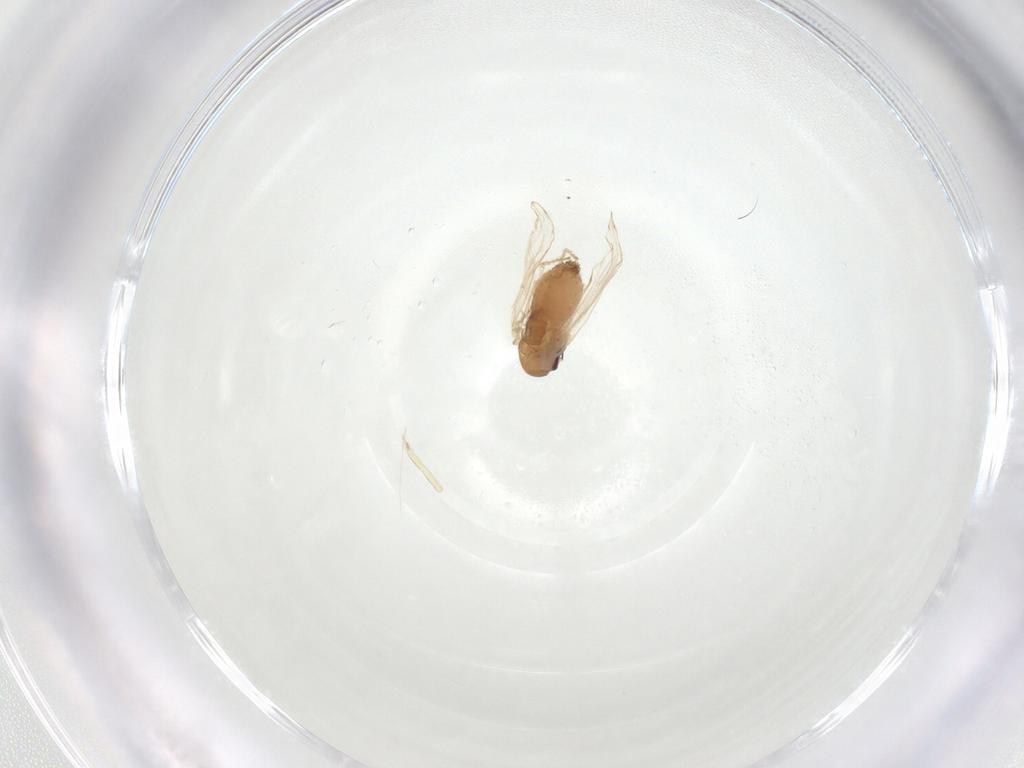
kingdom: Animalia
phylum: Arthropoda
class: Insecta
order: Diptera
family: Psychodidae
